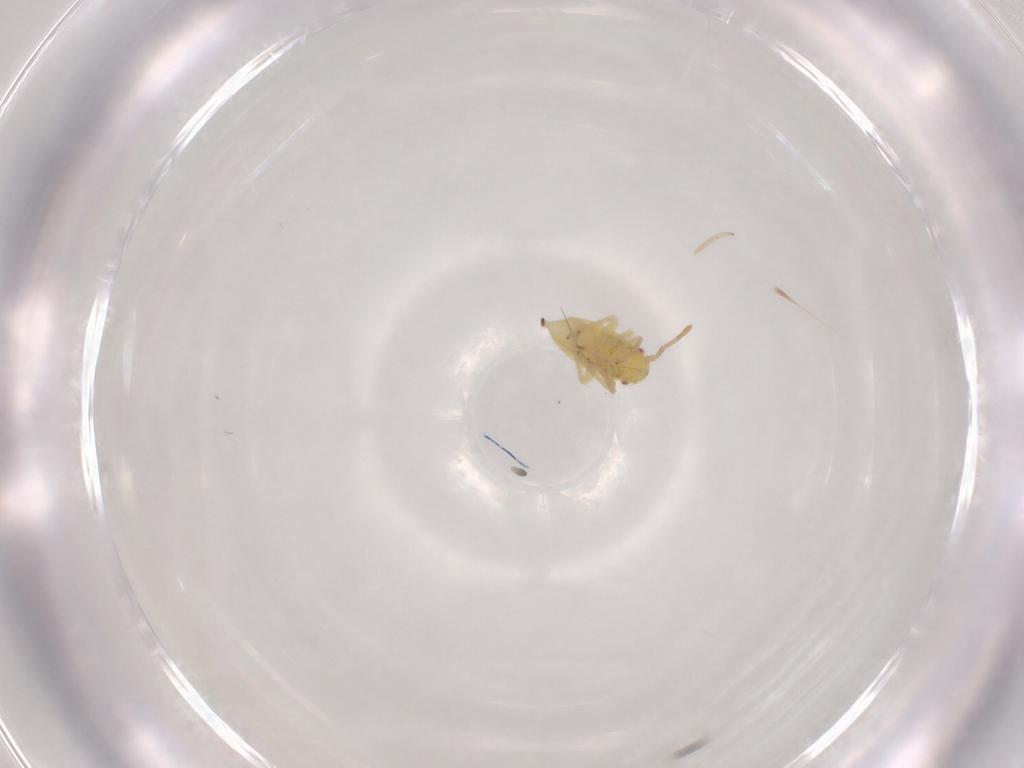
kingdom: Animalia
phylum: Arthropoda
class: Insecta
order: Hemiptera
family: Miridae
